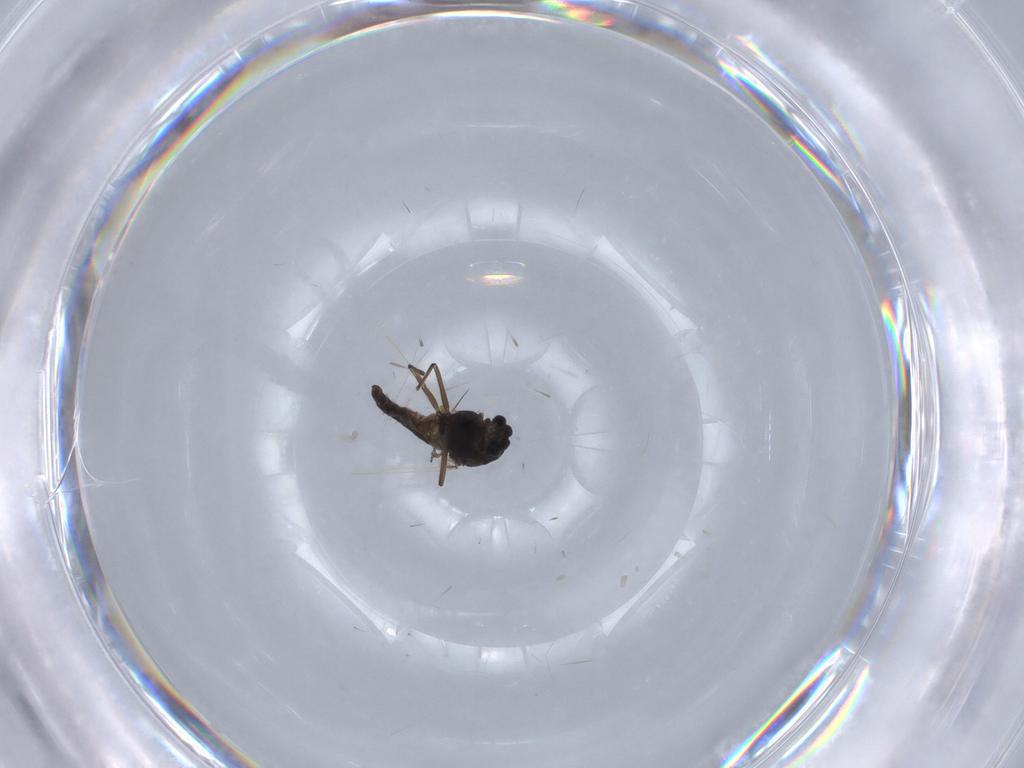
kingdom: Animalia
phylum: Arthropoda
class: Insecta
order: Diptera
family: Chironomidae
